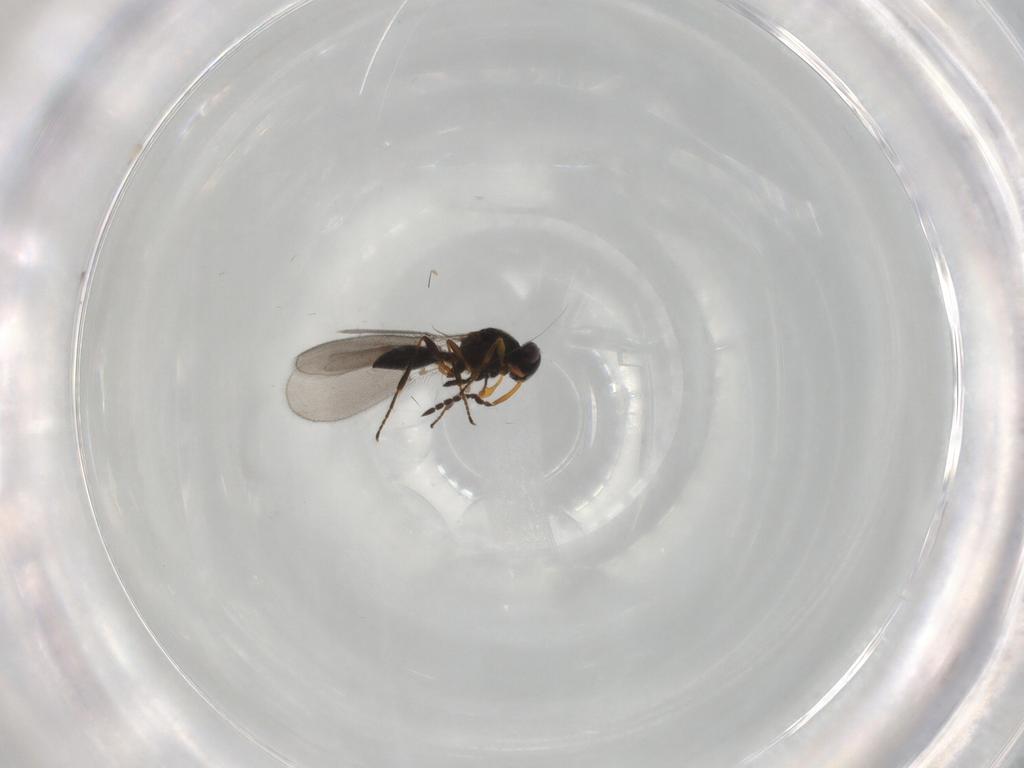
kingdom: Animalia
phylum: Arthropoda
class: Insecta
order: Hymenoptera
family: Platygastridae
